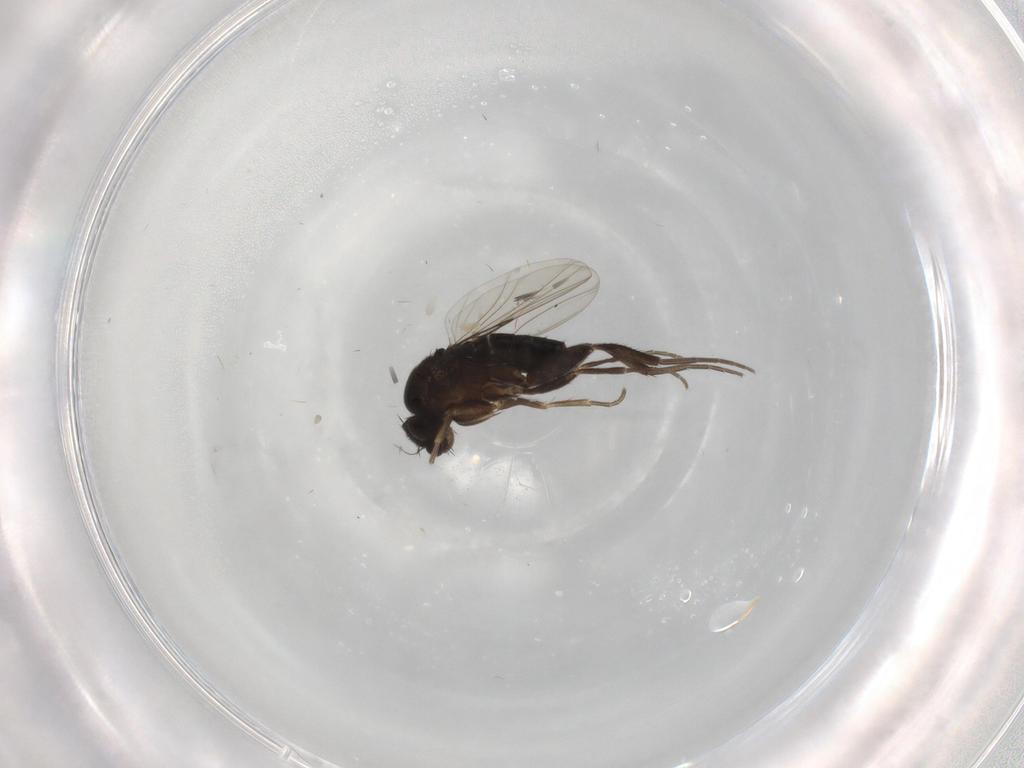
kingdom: Animalia
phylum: Arthropoda
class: Insecta
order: Diptera
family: Phoridae
